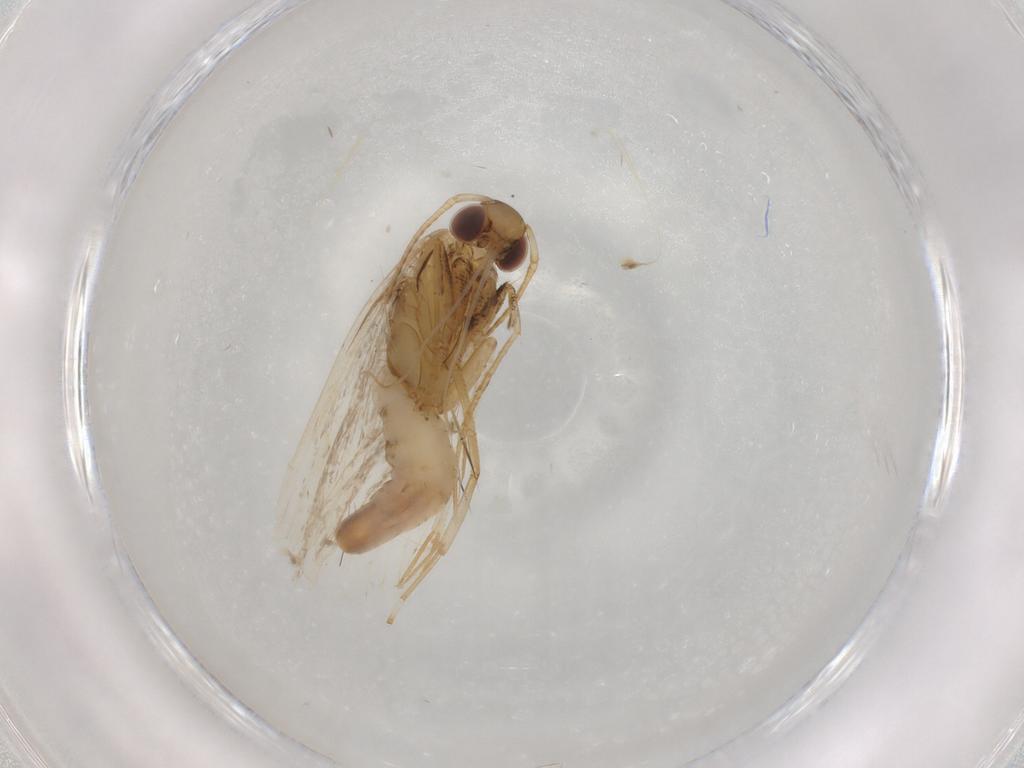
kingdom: Animalia
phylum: Arthropoda
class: Insecta
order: Lepidoptera
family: Gelechiidae
